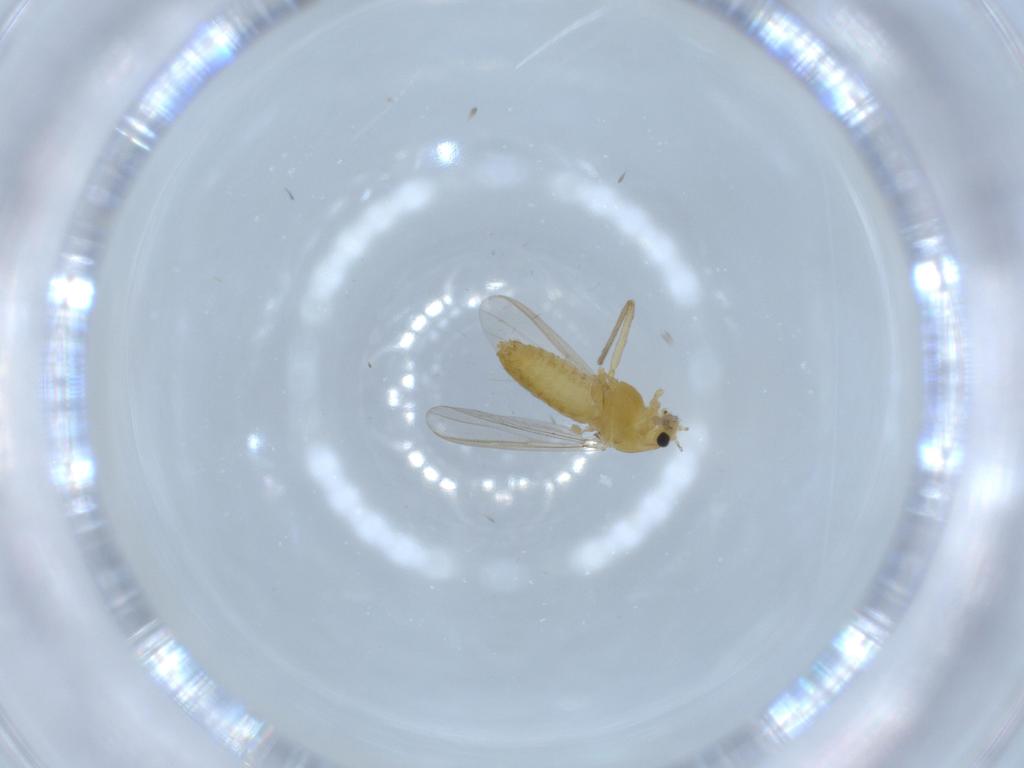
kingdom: Animalia
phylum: Arthropoda
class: Insecta
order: Diptera
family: Chironomidae
